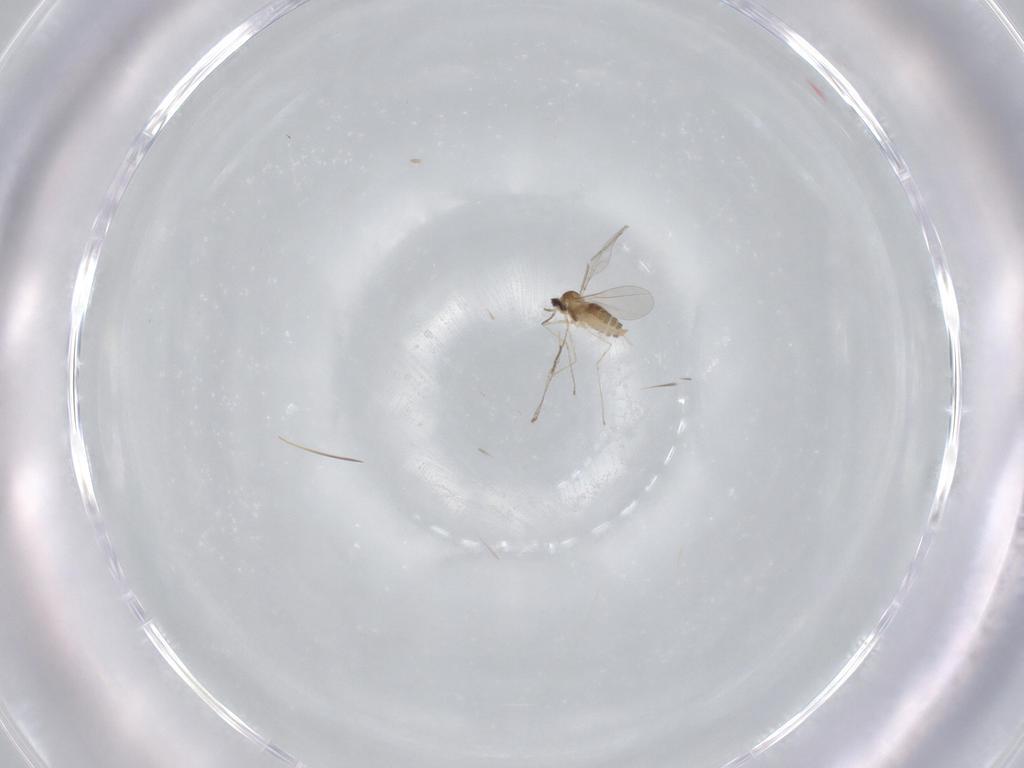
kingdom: Animalia
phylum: Arthropoda
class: Insecta
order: Diptera
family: Cecidomyiidae
